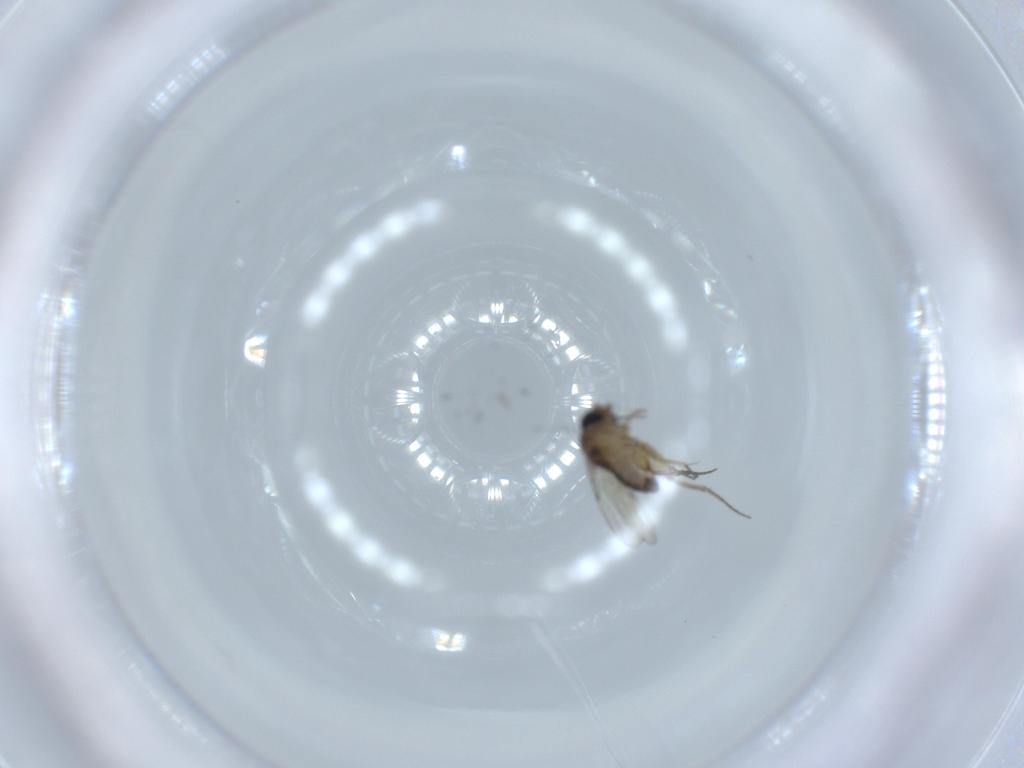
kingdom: Animalia
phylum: Arthropoda
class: Insecta
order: Diptera
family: Phoridae
